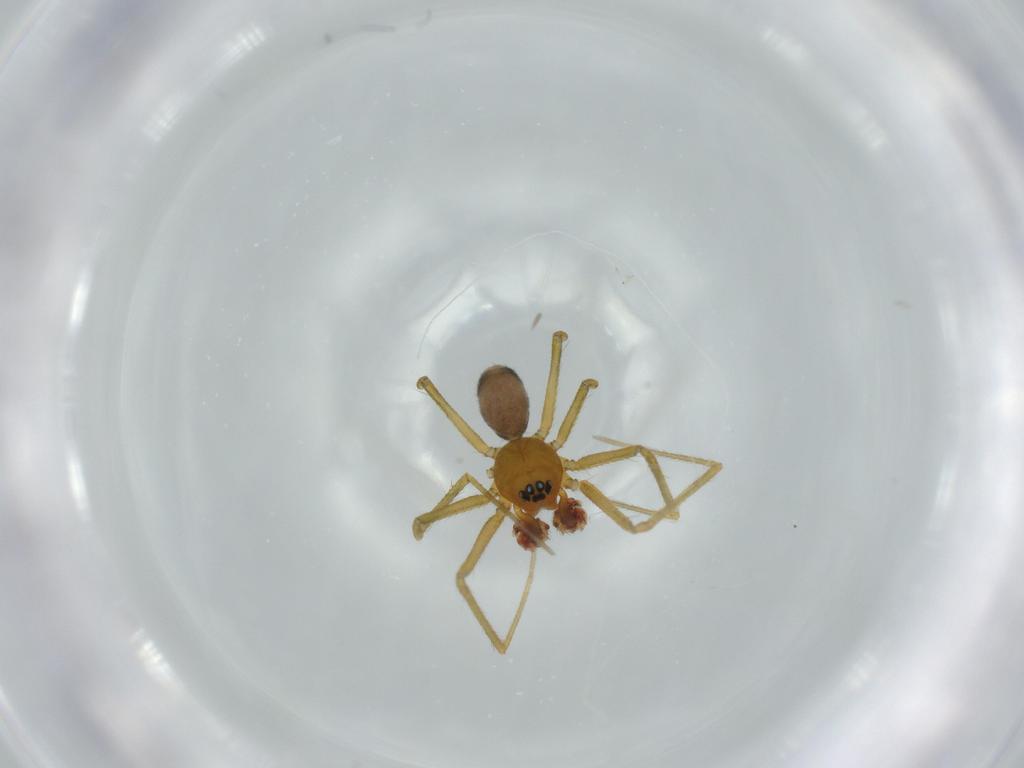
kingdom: Animalia
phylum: Arthropoda
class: Arachnida
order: Araneae
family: Linyphiidae
